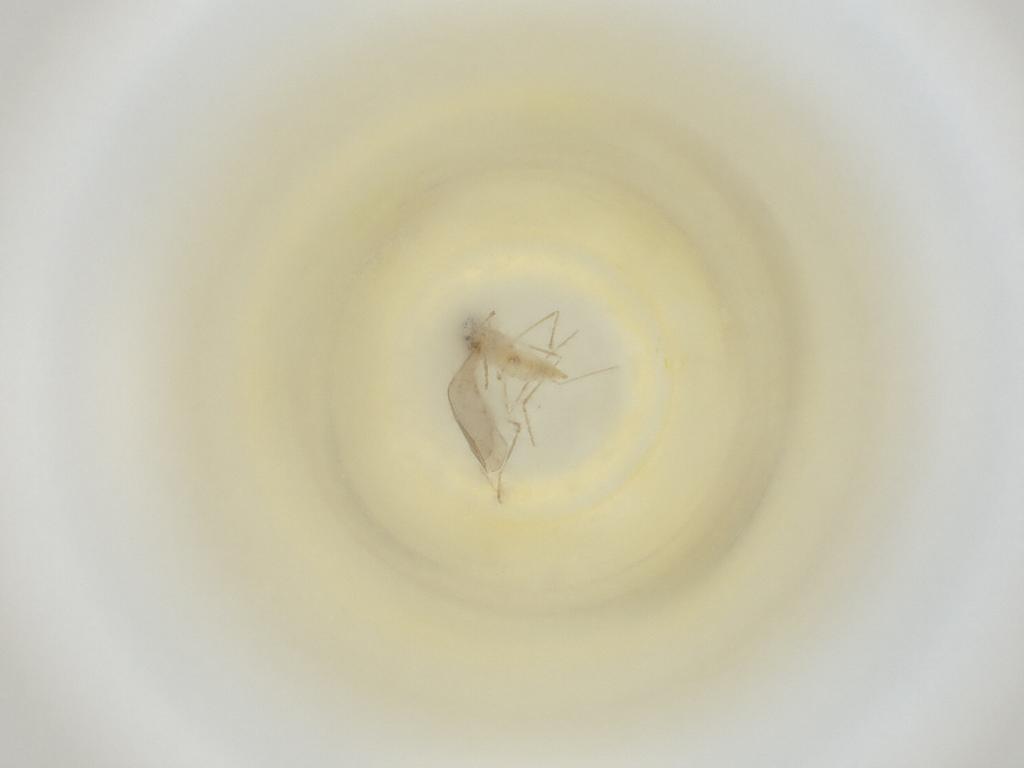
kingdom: Animalia
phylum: Arthropoda
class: Insecta
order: Diptera
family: Cecidomyiidae
